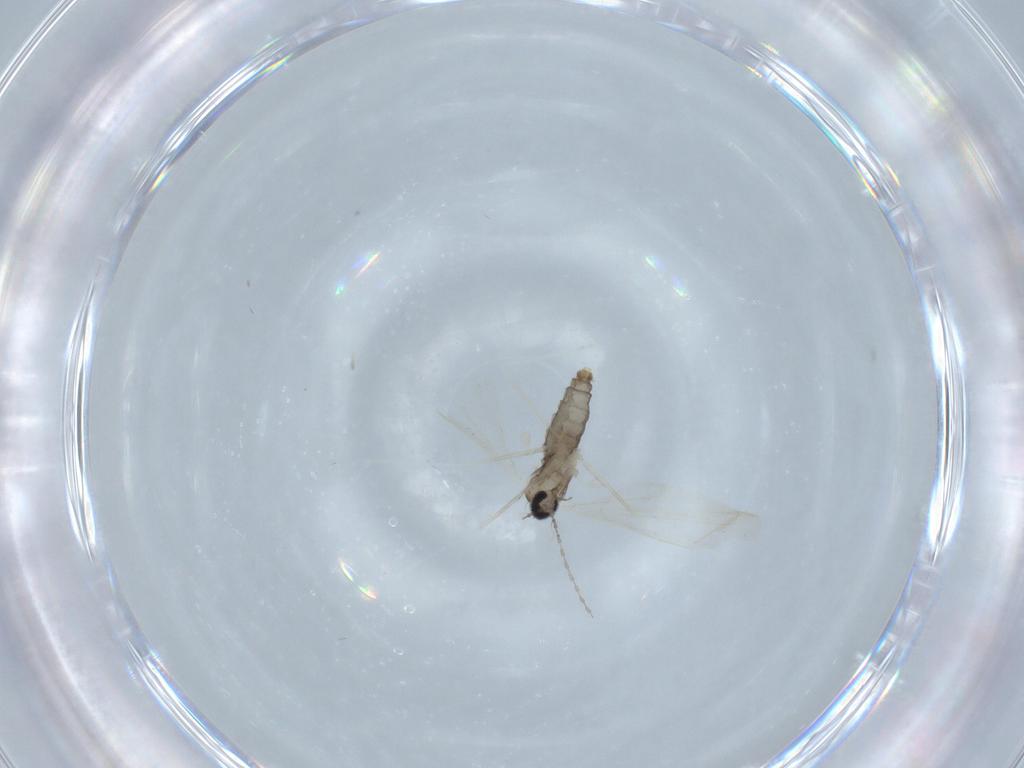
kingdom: Animalia
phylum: Arthropoda
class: Insecta
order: Diptera
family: Cecidomyiidae
